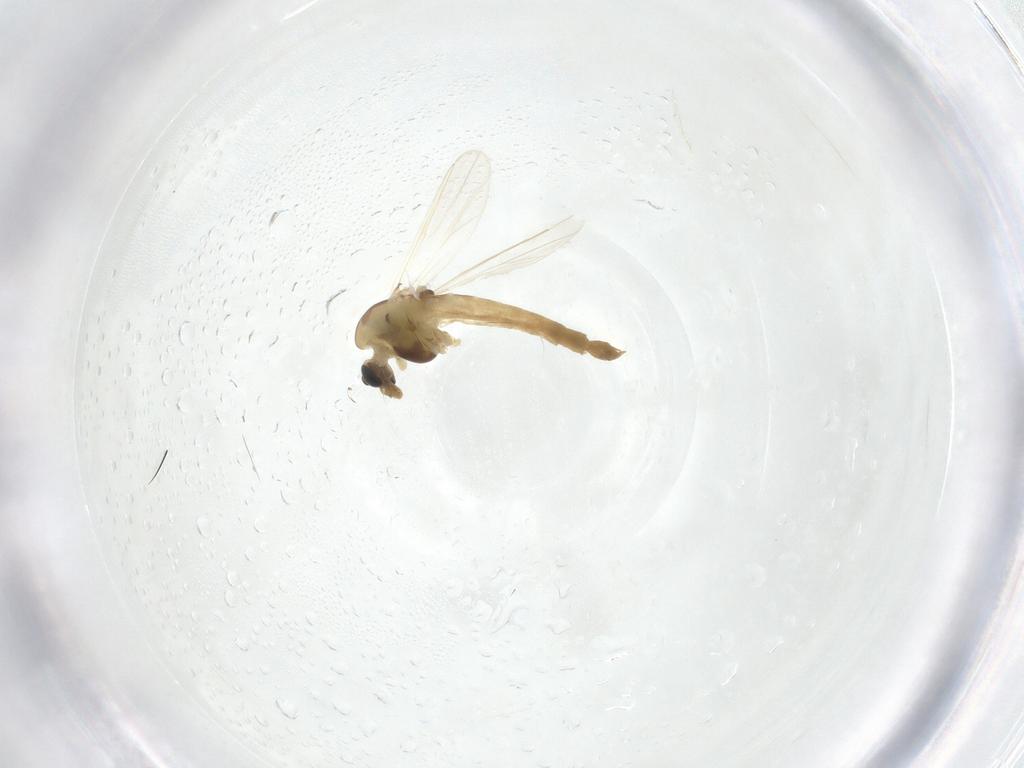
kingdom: Animalia
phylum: Arthropoda
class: Insecta
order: Diptera
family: Chironomidae
